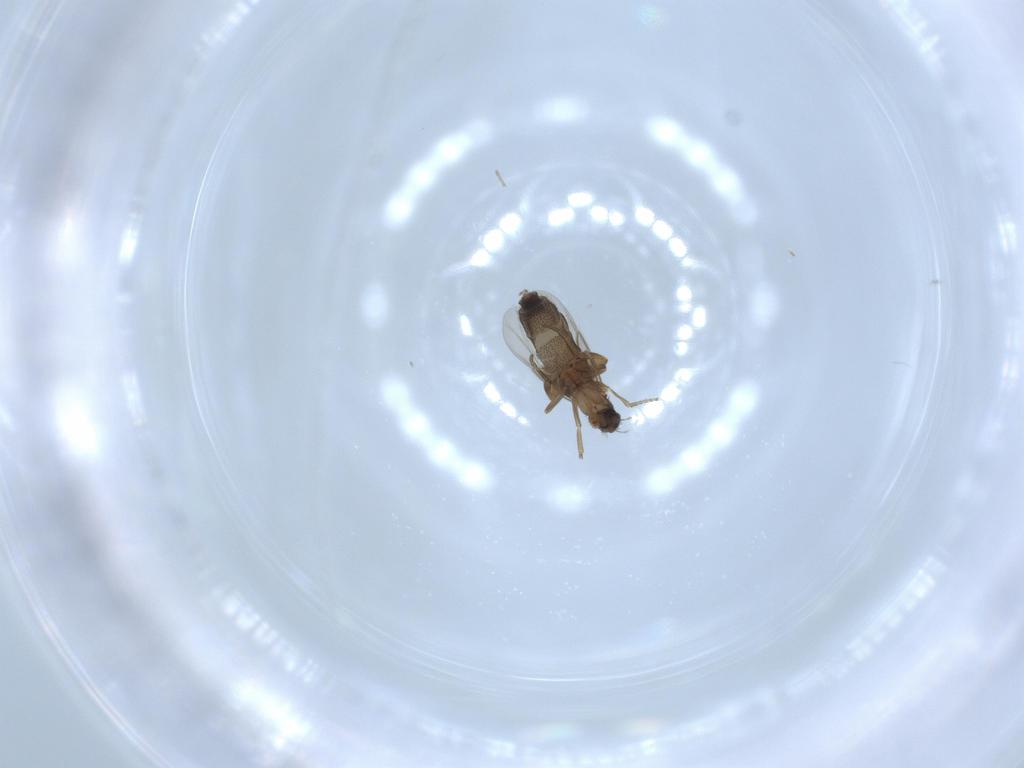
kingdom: Animalia
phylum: Arthropoda
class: Insecta
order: Diptera
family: Phoridae
